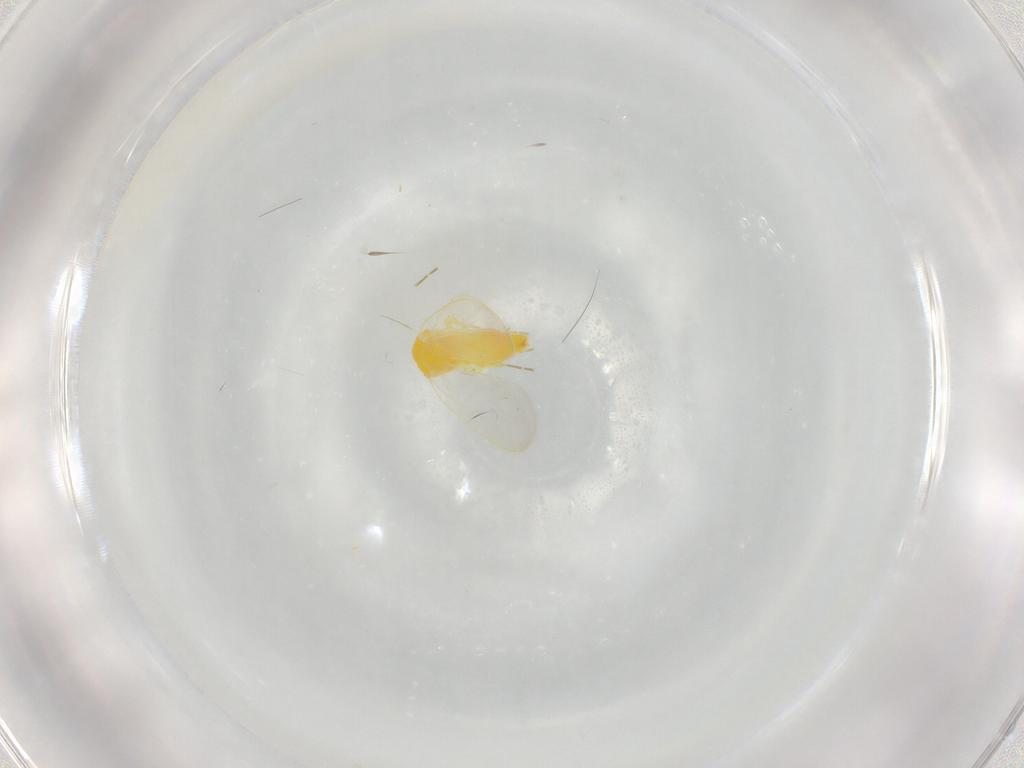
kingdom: Animalia
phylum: Arthropoda
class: Insecta
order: Hemiptera
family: Aleyrodidae
